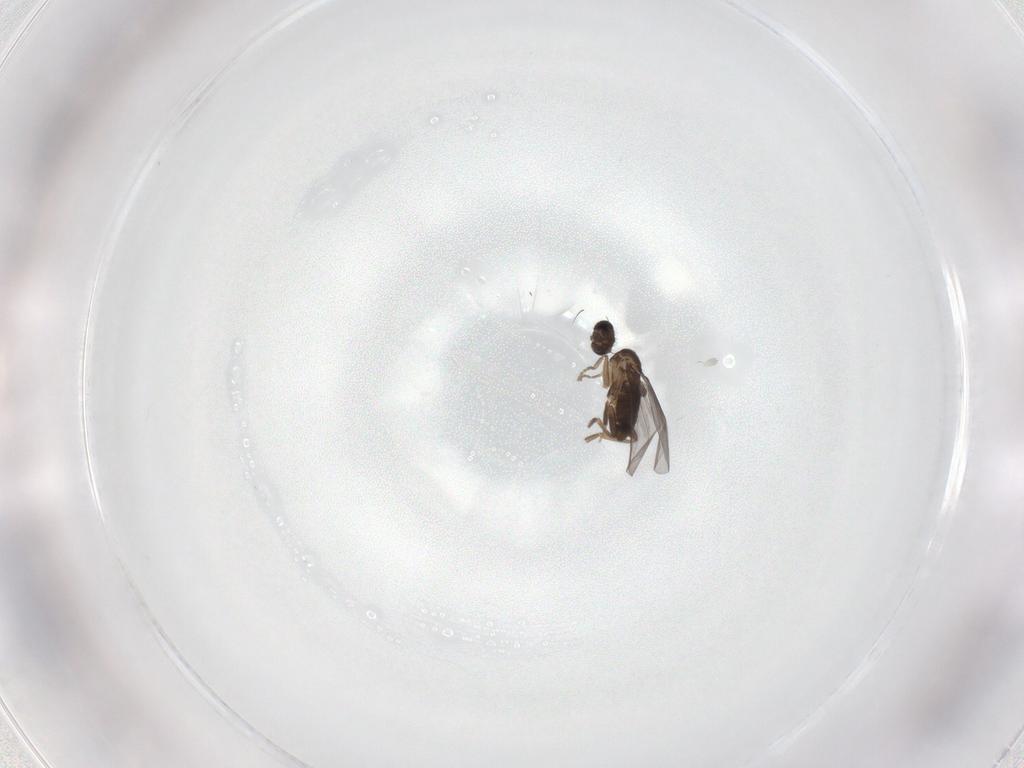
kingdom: Animalia
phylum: Arthropoda
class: Insecta
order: Diptera
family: Phoridae
